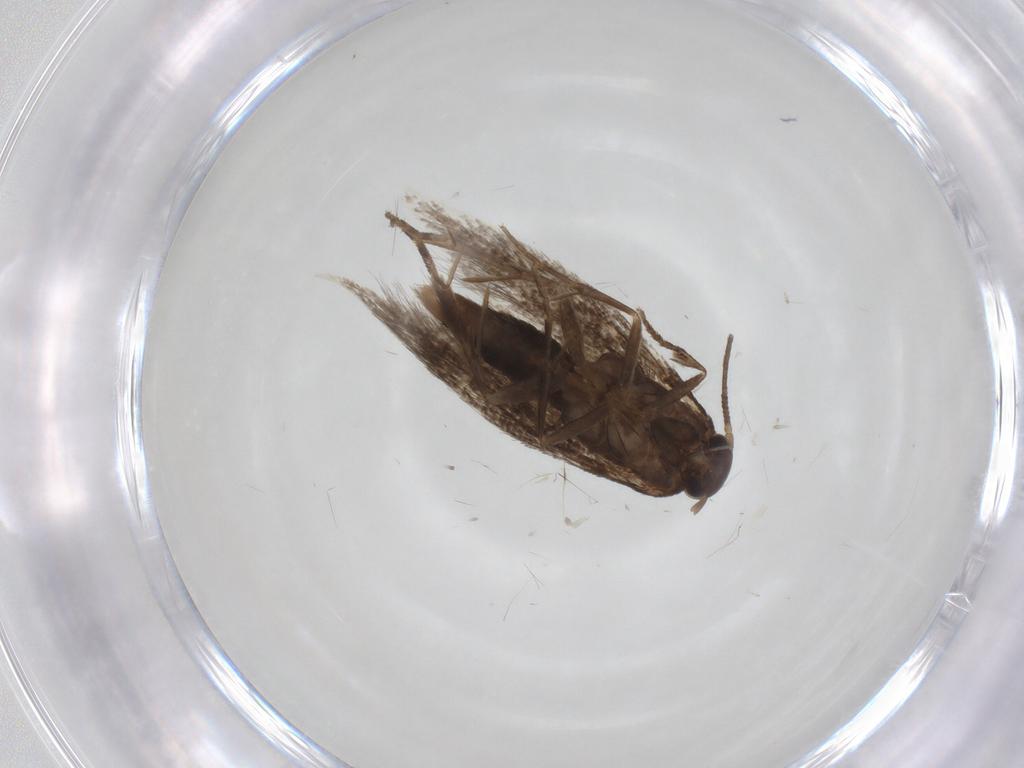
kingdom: Animalia
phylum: Arthropoda
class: Insecta
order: Lepidoptera
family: Elachistidae
